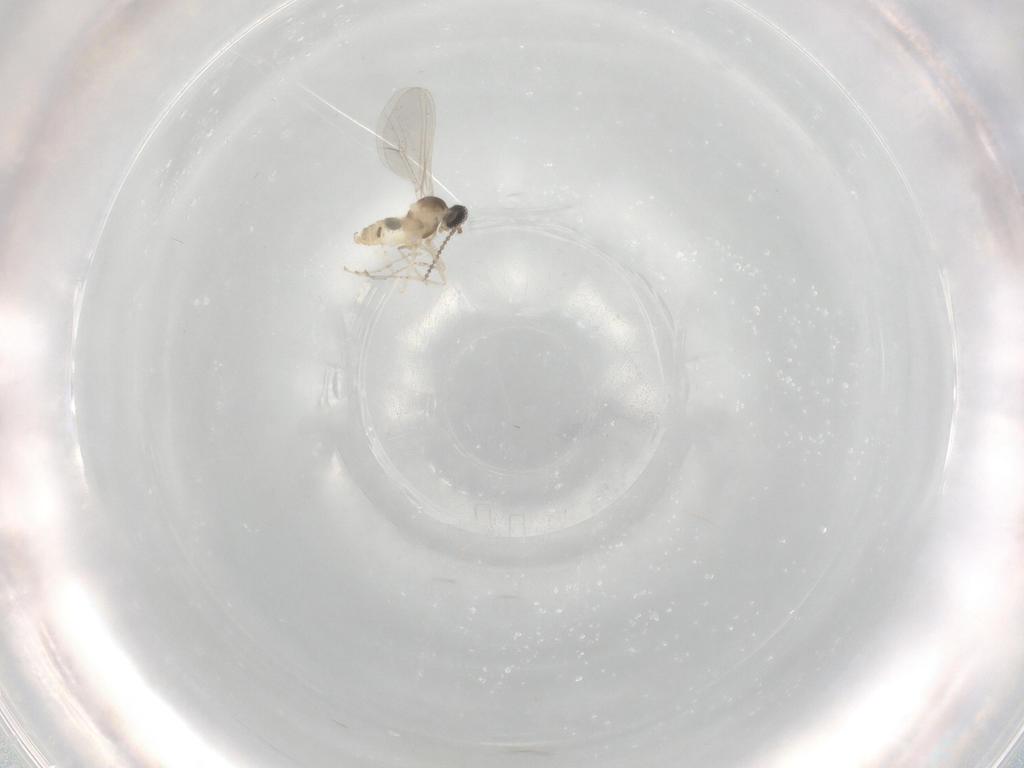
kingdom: Animalia
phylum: Arthropoda
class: Insecta
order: Diptera
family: Cecidomyiidae
